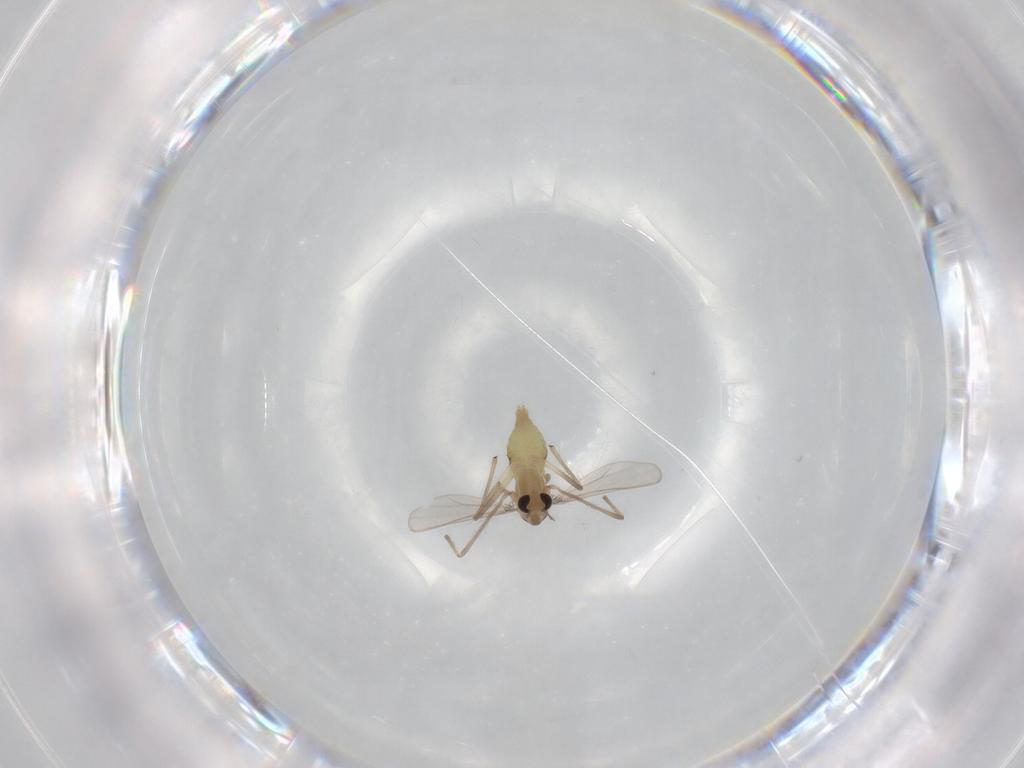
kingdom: Animalia
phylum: Arthropoda
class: Insecta
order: Diptera
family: Chironomidae
